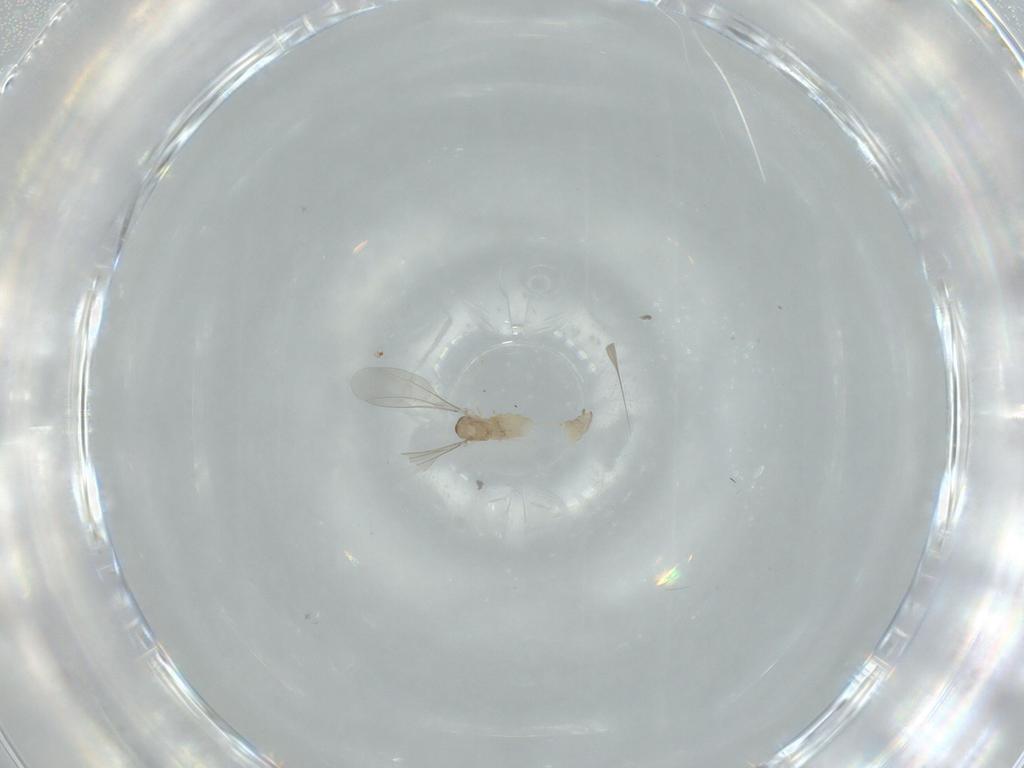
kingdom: Animalia
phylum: Arthropoda
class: Insecta
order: Diptera
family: Cecidomyiidae
